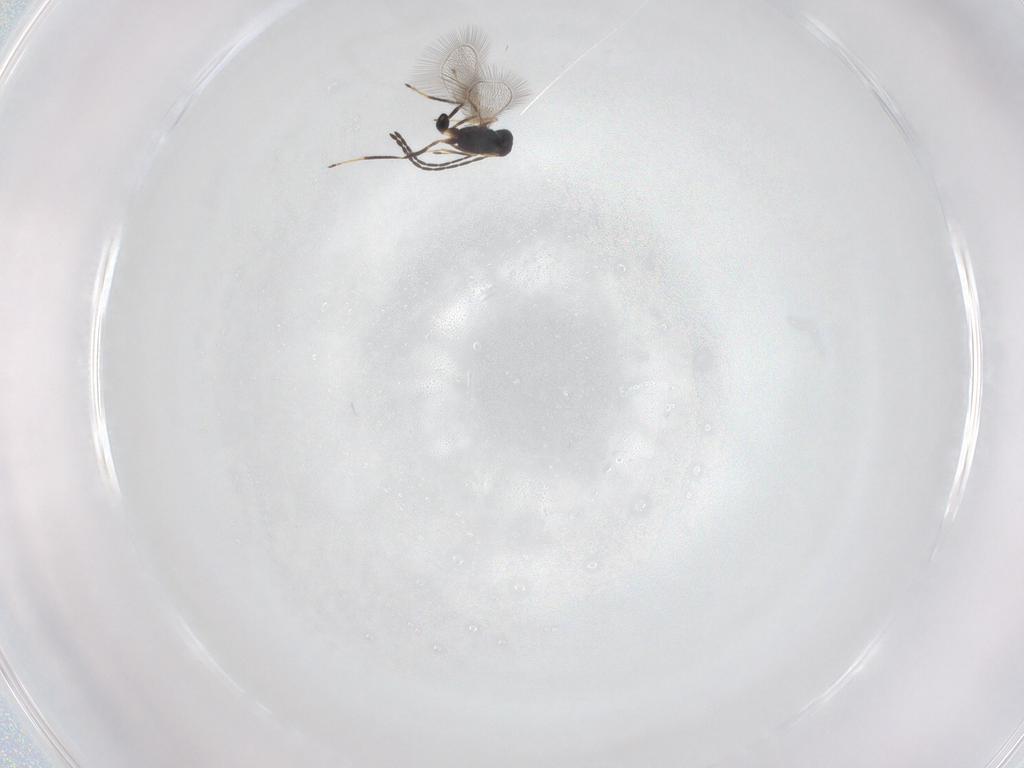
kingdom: Animalia
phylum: Arthropoda
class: Insecta
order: Hymenoptera
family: Mymaridae
